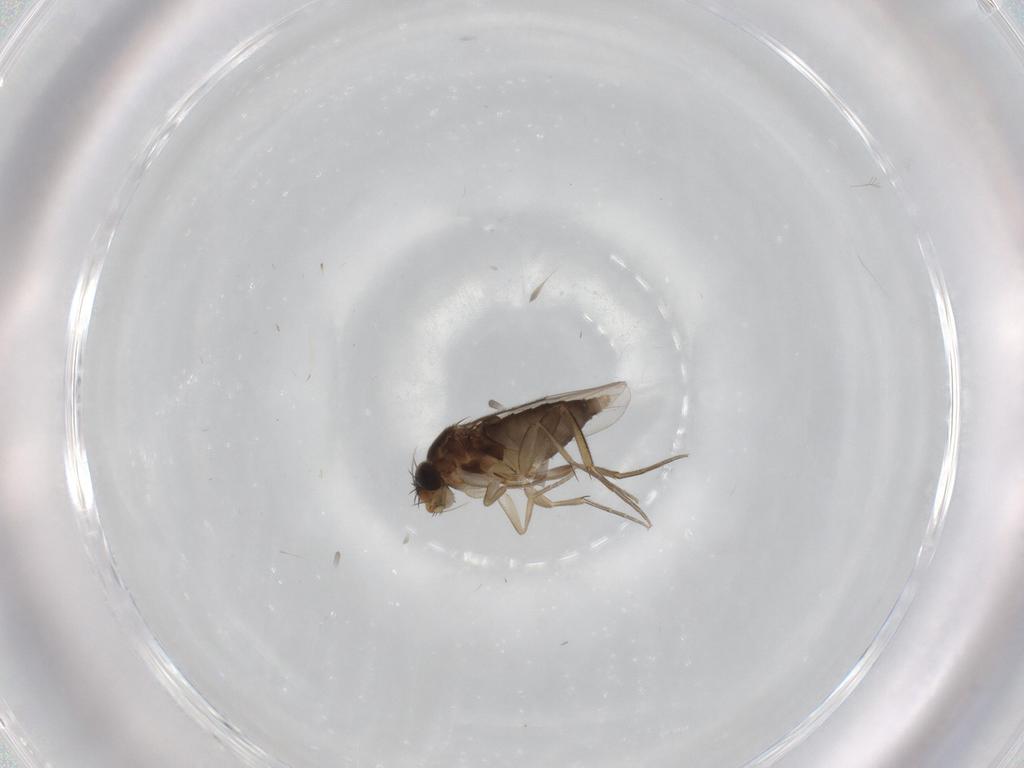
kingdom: Animalia
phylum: Arthropoda
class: Insecta
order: Diptera
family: Phoridae
